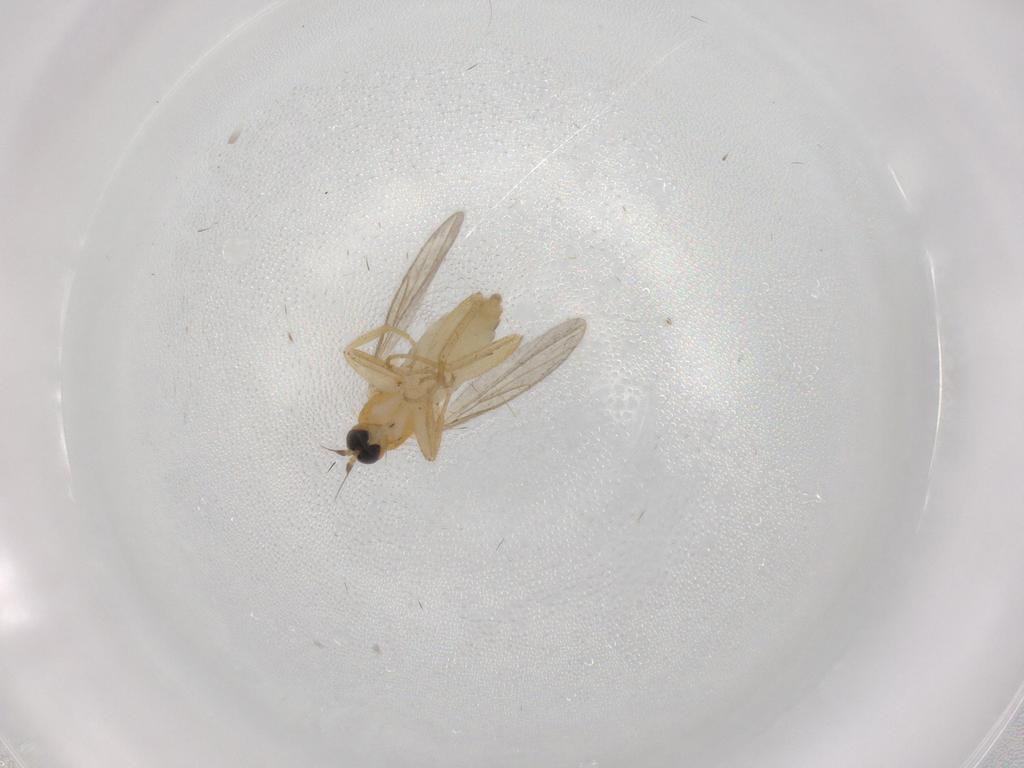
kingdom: Animalia
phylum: Arthropoda
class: Insecta
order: Diptera
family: Hybotidae
